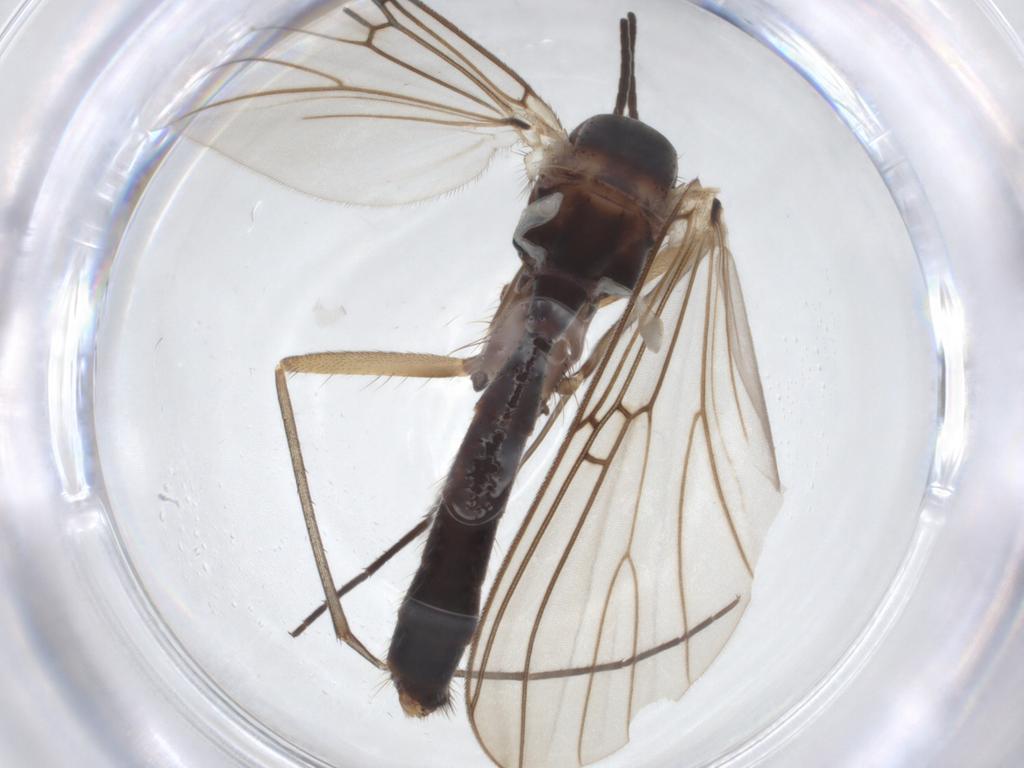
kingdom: Animalia
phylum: Arthropoda
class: Insecta
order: Diptera
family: Mycetophilidae
